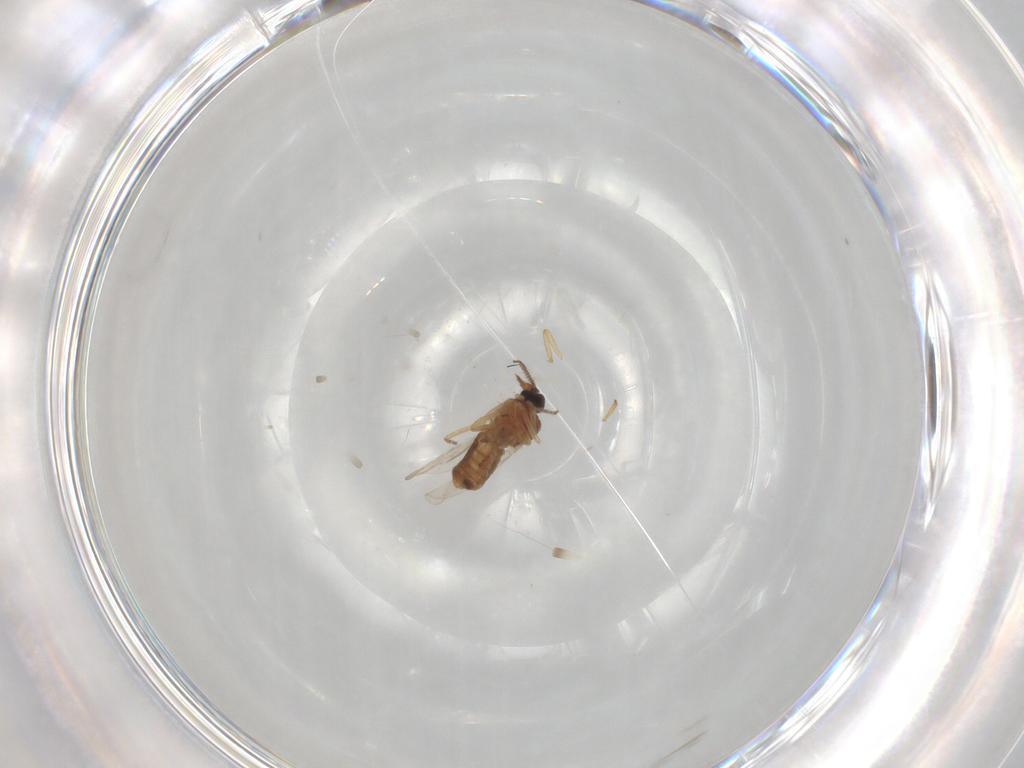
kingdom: Animalia
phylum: Arthropoda
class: Insecta
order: Diptera
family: Ceratopogonidae
